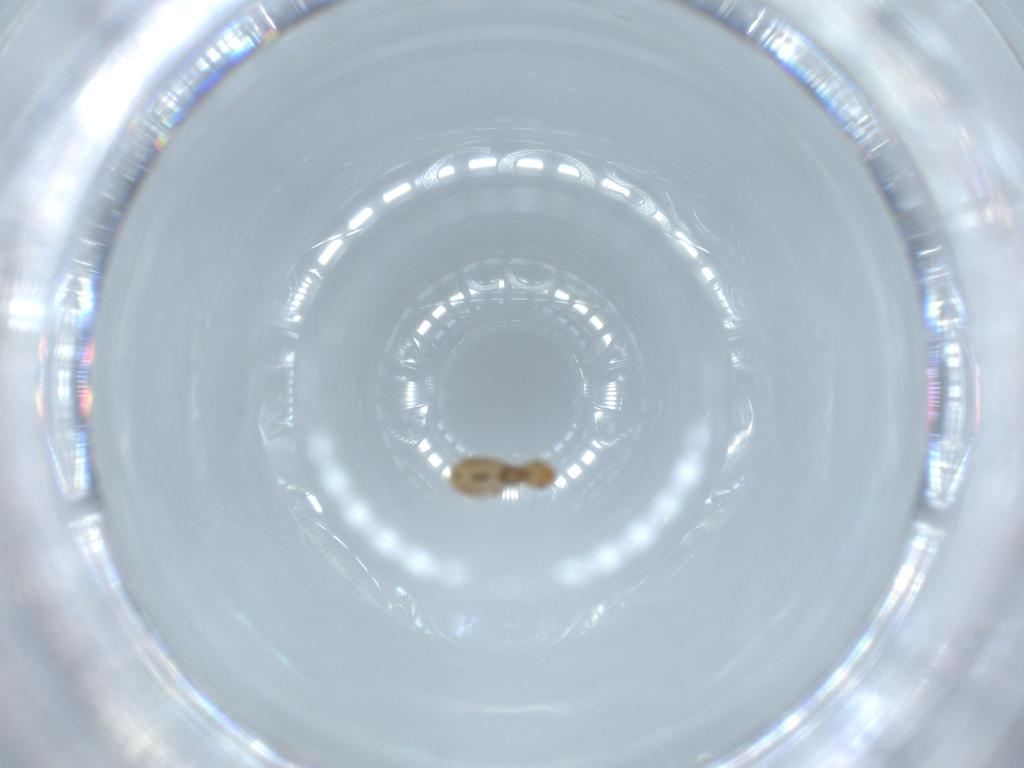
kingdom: Animalia
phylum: Arthropoda
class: Insecta
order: Psocodea
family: Liposcelididae
